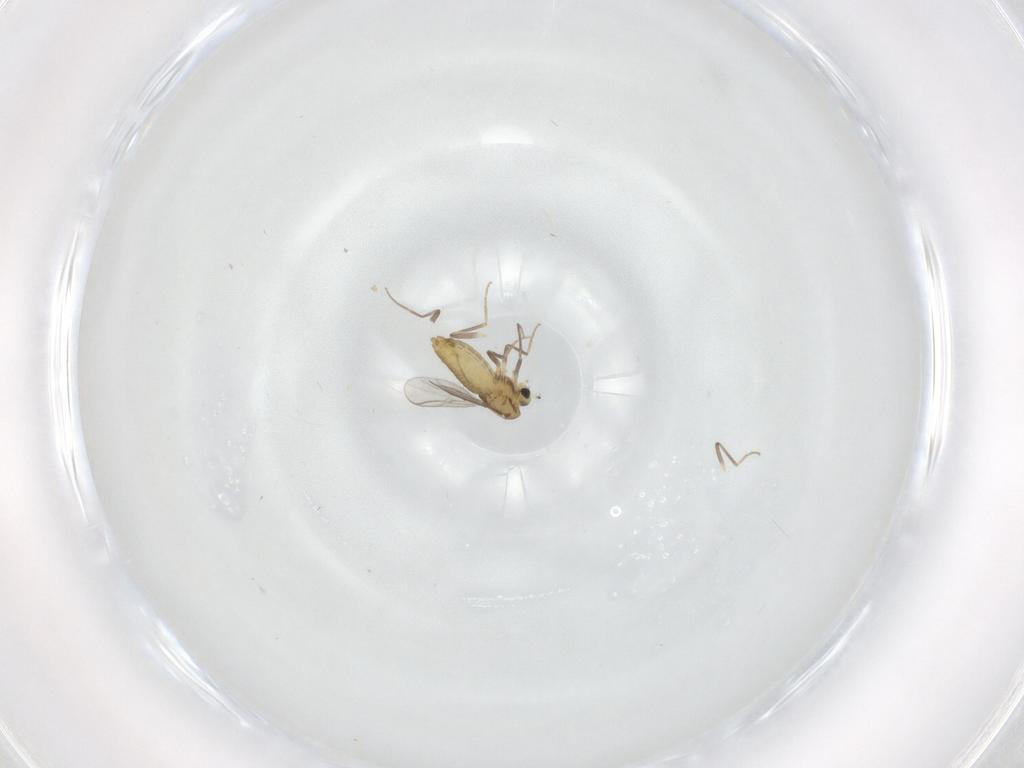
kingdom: Animalia
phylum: Arthropoda
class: Insecta
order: Diptera
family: Chironomidae
